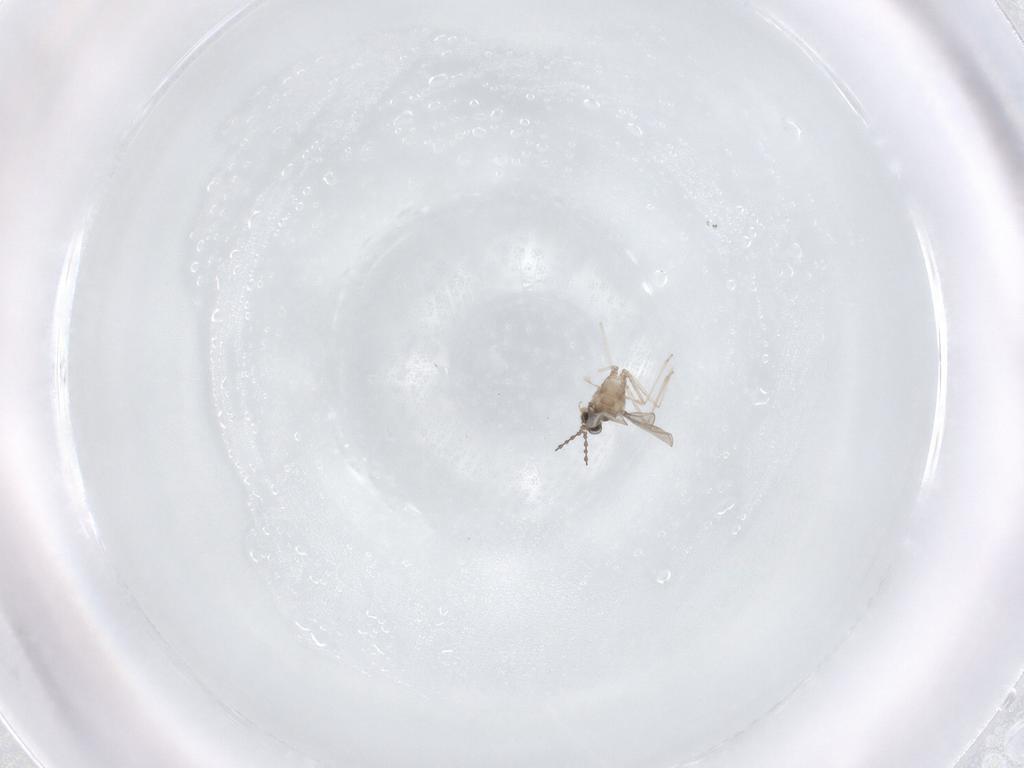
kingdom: Animalia
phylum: Arthropoda
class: Insecta
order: Diptera
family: Cecidomyiidae
